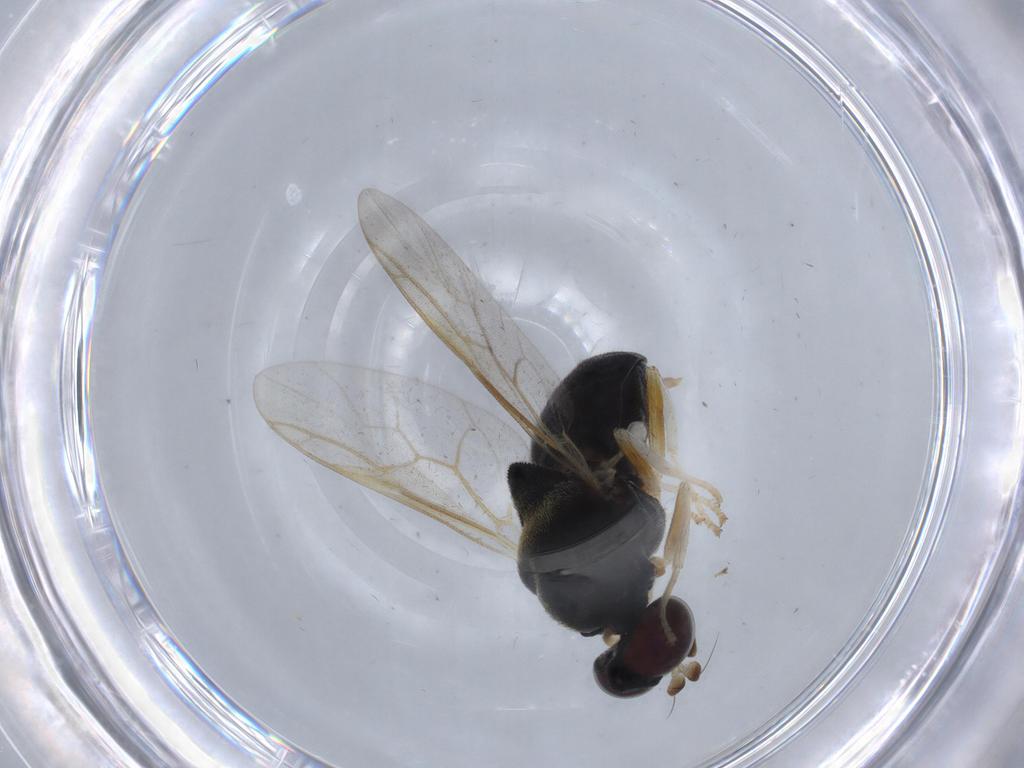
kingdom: Animalia
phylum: Arthropoda
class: Insecta
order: Diptera
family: Stratiomyidae
